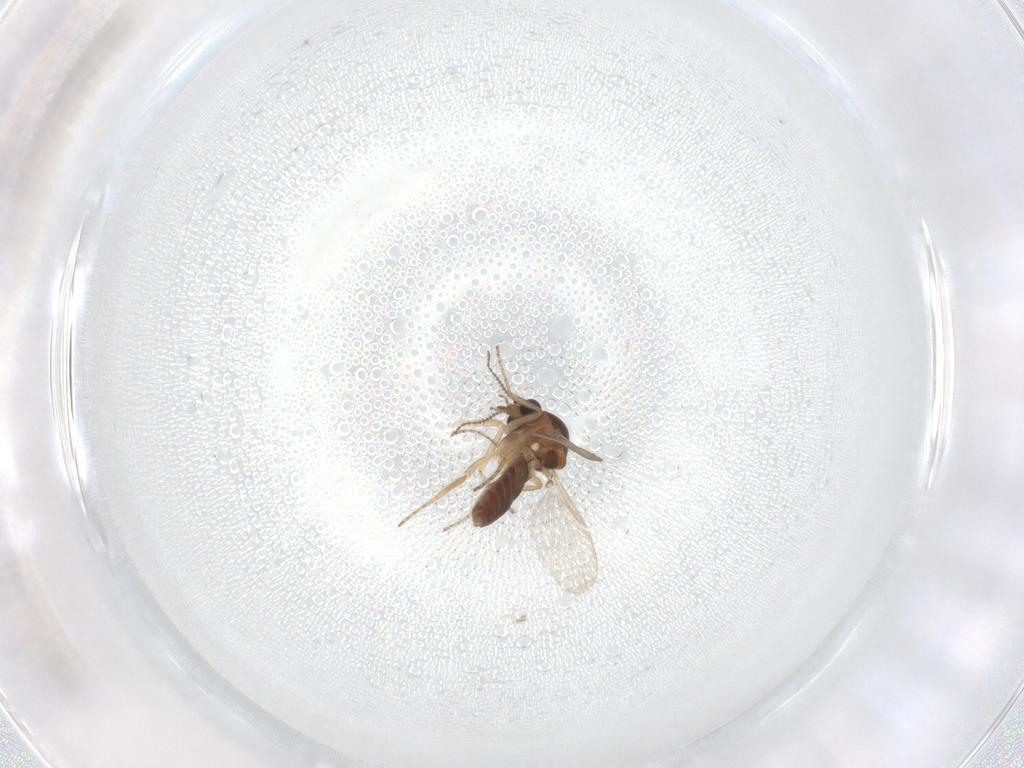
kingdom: Animalia
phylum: Arthropoda
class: Insecta
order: Diptera
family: Ceratopogonidae
